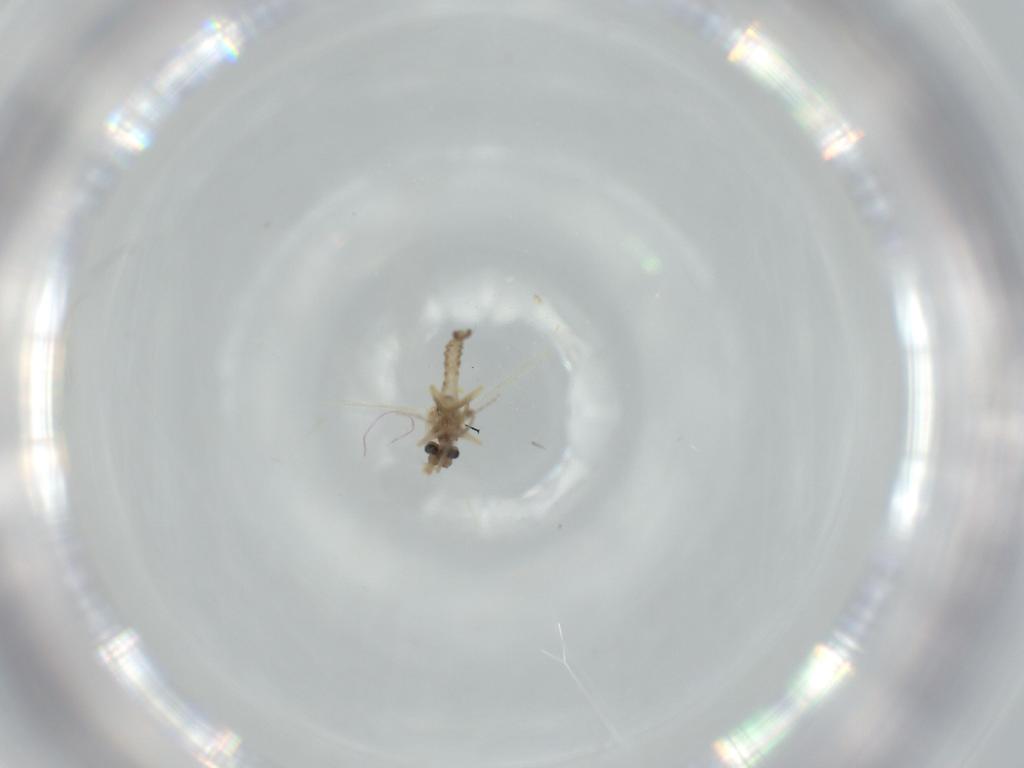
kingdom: Animalia
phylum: Arthropoda
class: Insecta
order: Diptera
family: Ceratopogonidae
